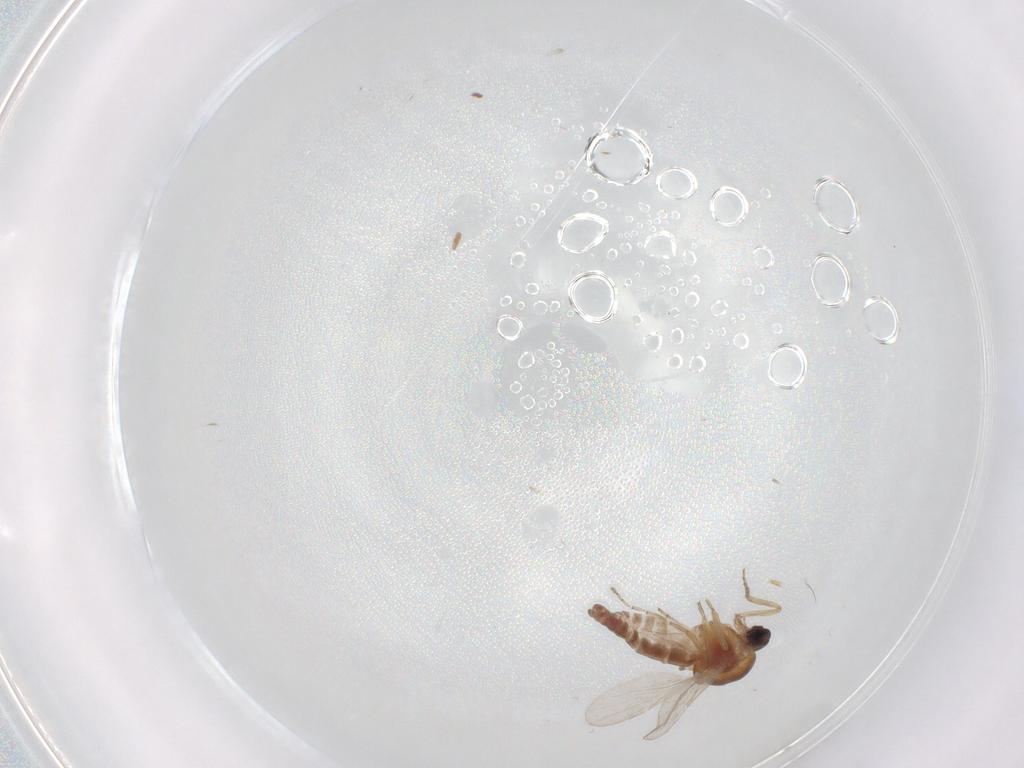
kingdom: Animalia
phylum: Arthropoda
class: Insecta
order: Diptera
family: Ceratopogonidae
